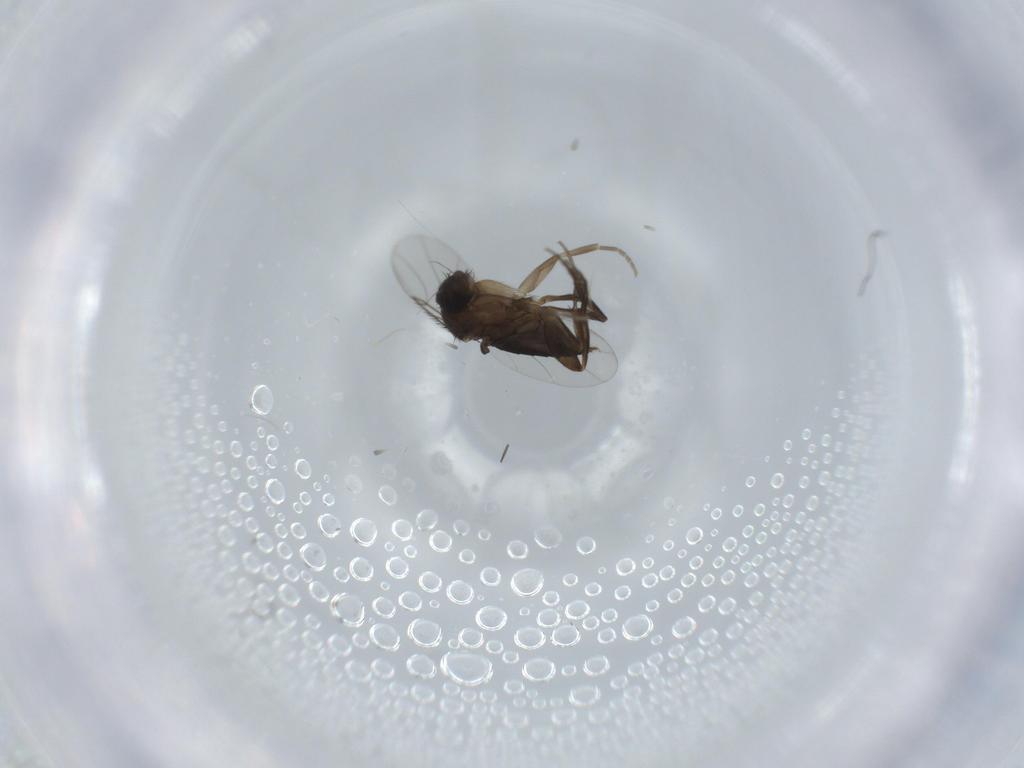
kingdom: Animalia
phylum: Arthropoda
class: Insecta
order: Diptera
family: Phoridae
